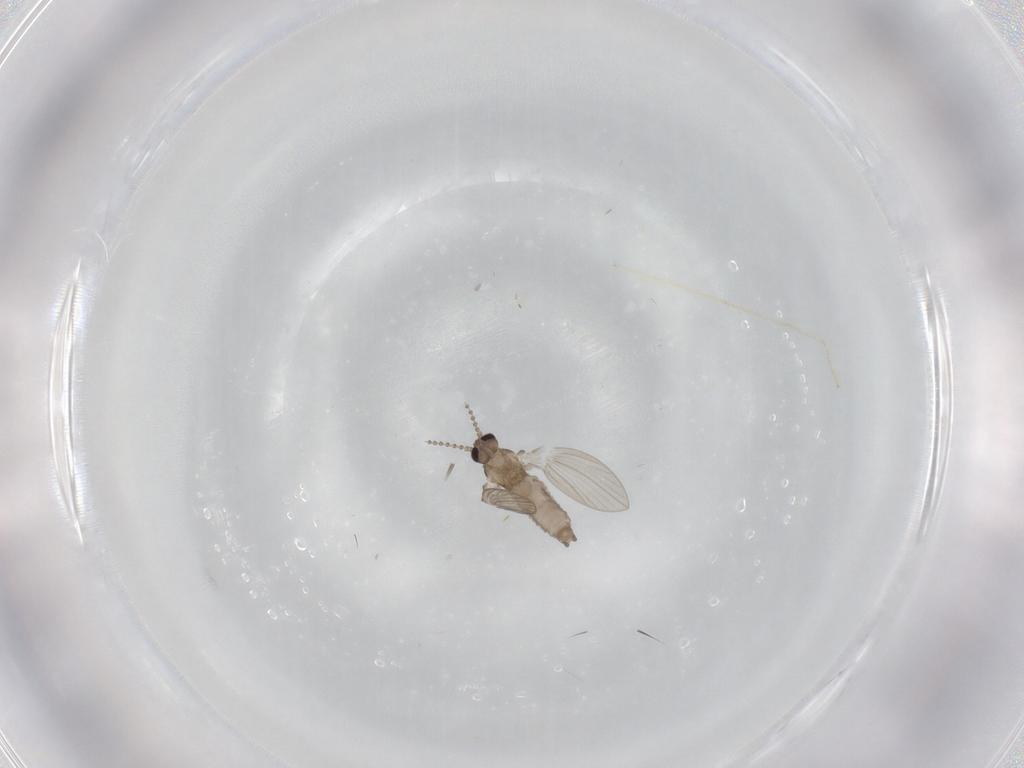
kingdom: Animalia
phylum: Arthropoda
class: Insecta
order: Diptera
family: Psychodidae
